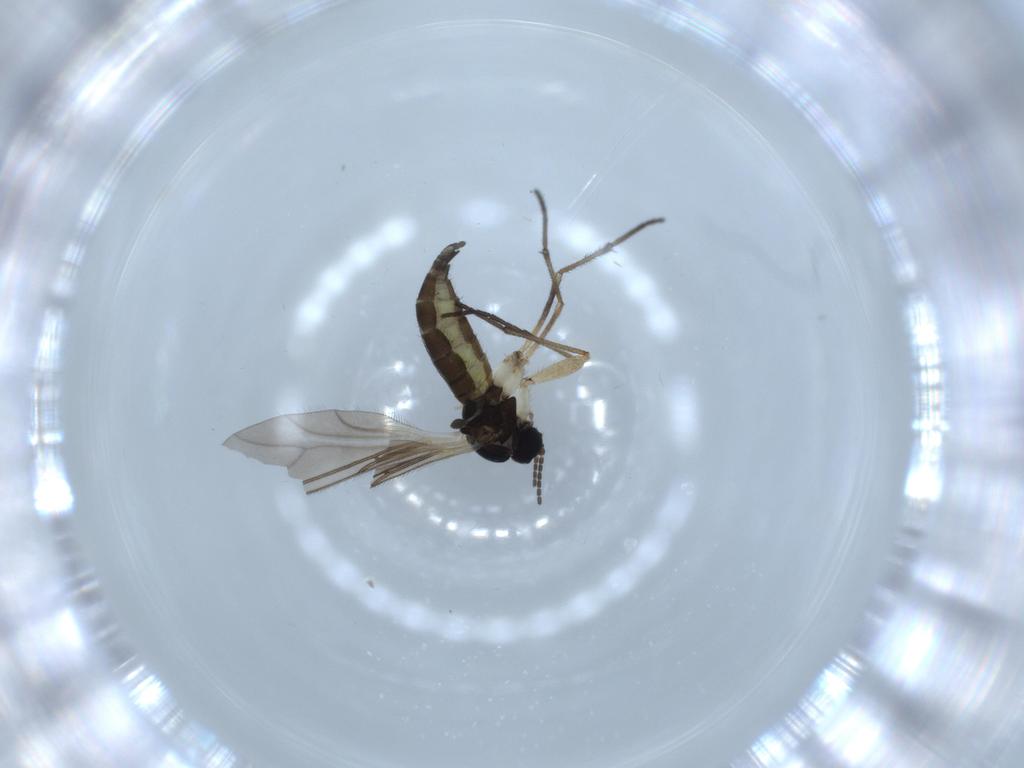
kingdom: Animalia
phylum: Arthropoda
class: Insecta
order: Diptera
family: Sciaridae
